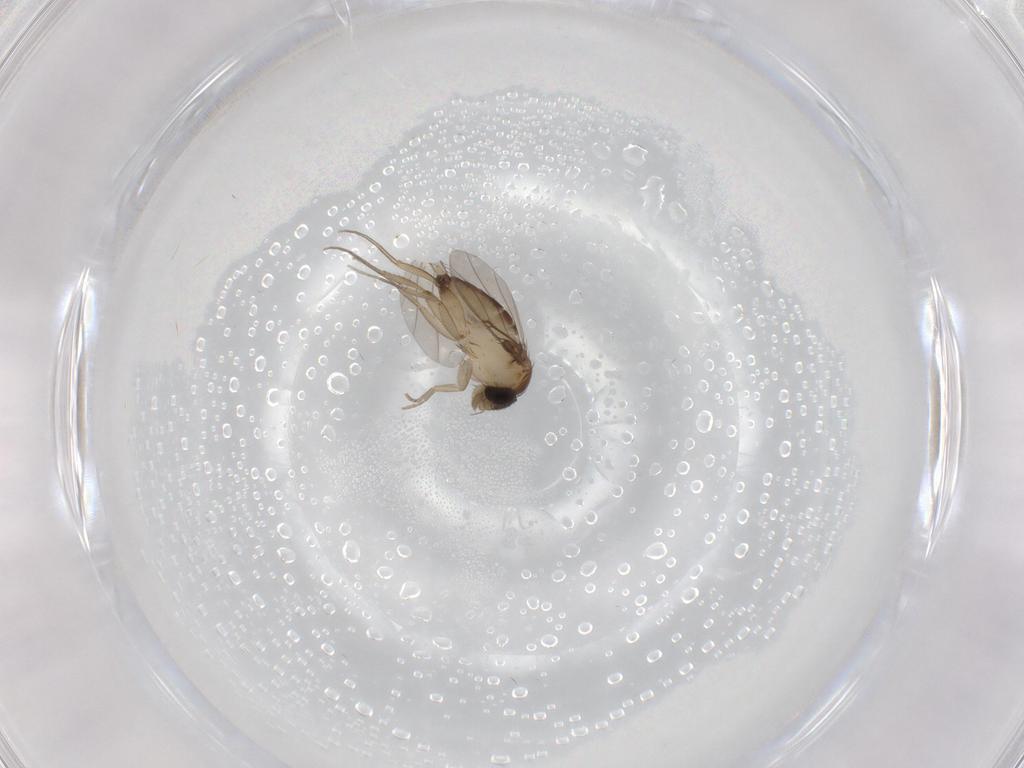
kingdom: Animalia
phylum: Arthropoda
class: Insecta
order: Diptera
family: Phoridae
